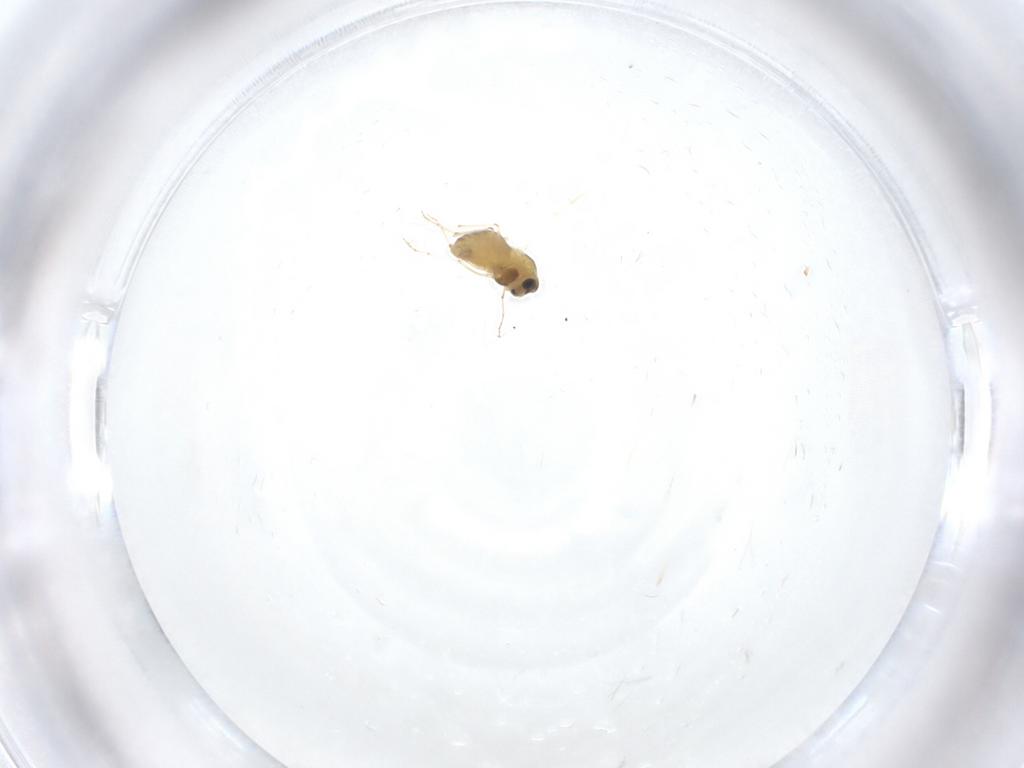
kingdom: Animalia
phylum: Arthropoda
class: Insecta
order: Diptera
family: Chironomidae
